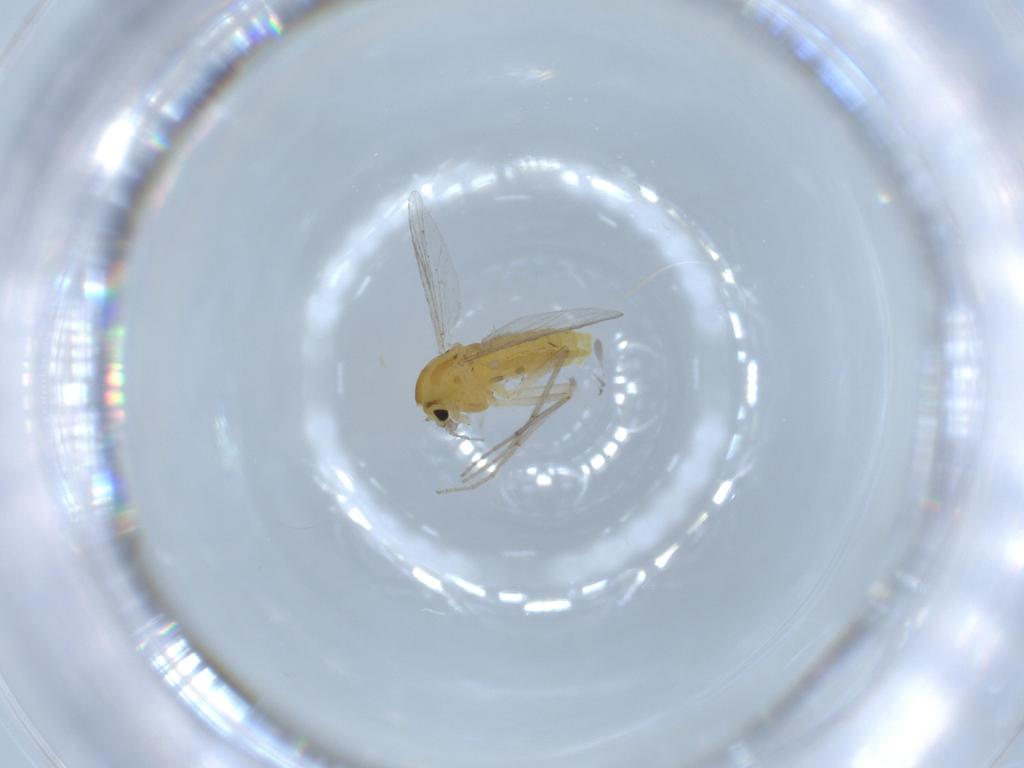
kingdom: Animalia
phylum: Arthropoda
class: Insecta
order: Diptera
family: Chironomidae
